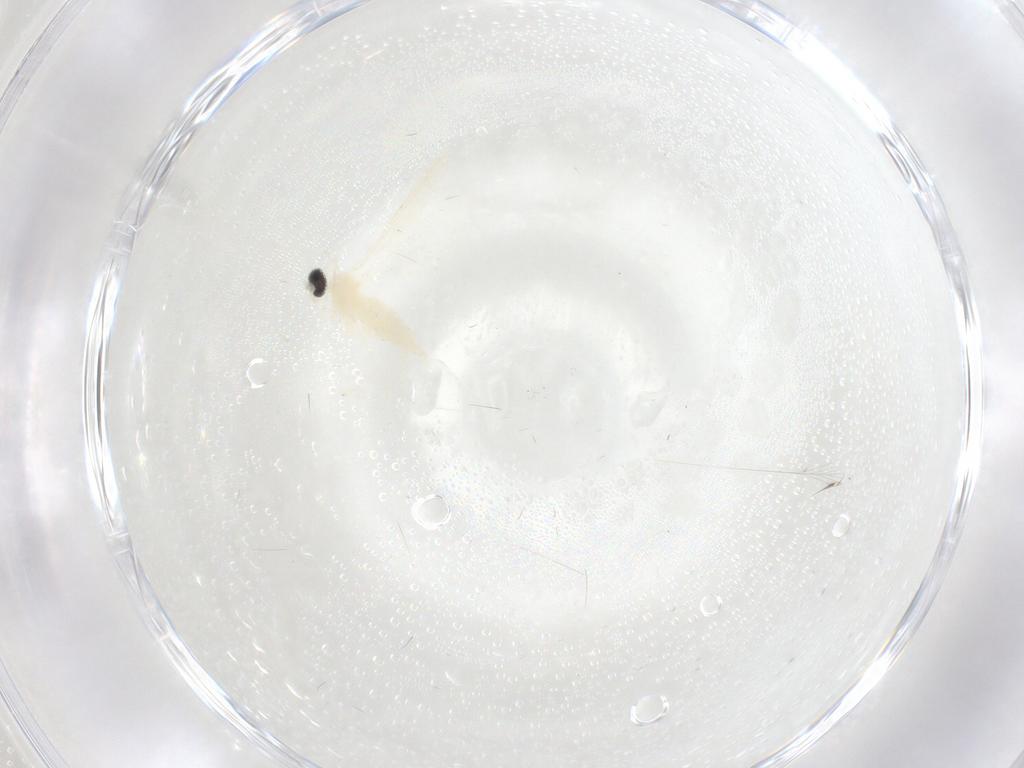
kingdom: Animalia
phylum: Arthropoda
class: Insecta
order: Diptera
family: Cecidomyiidae
